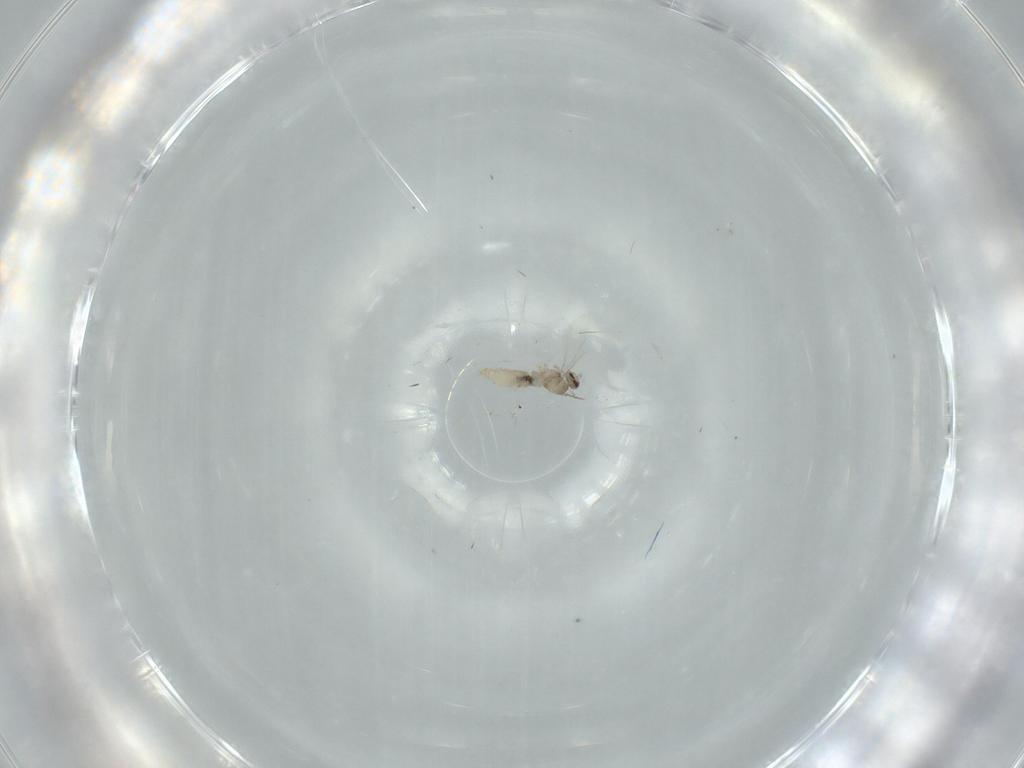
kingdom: Animalia
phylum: Arthropoda
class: Insecta
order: Diptera
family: Cecidomyiidae
